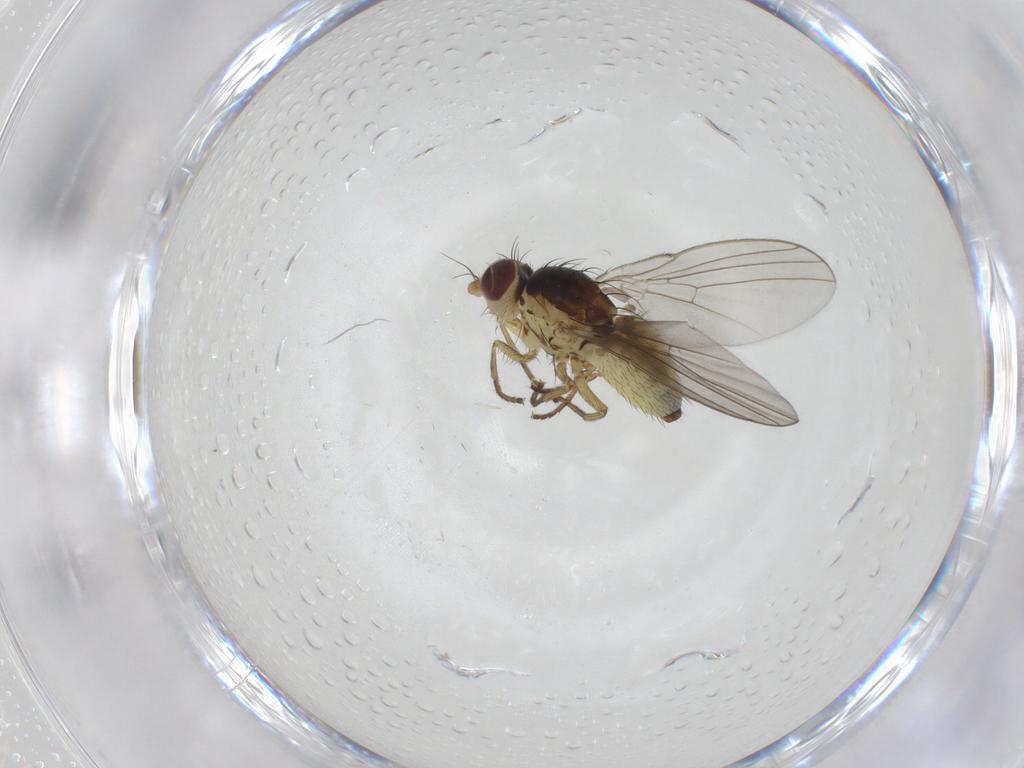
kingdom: Animalia
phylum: Arthropoda
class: Insecta
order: Diptera
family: Agromyzidae
